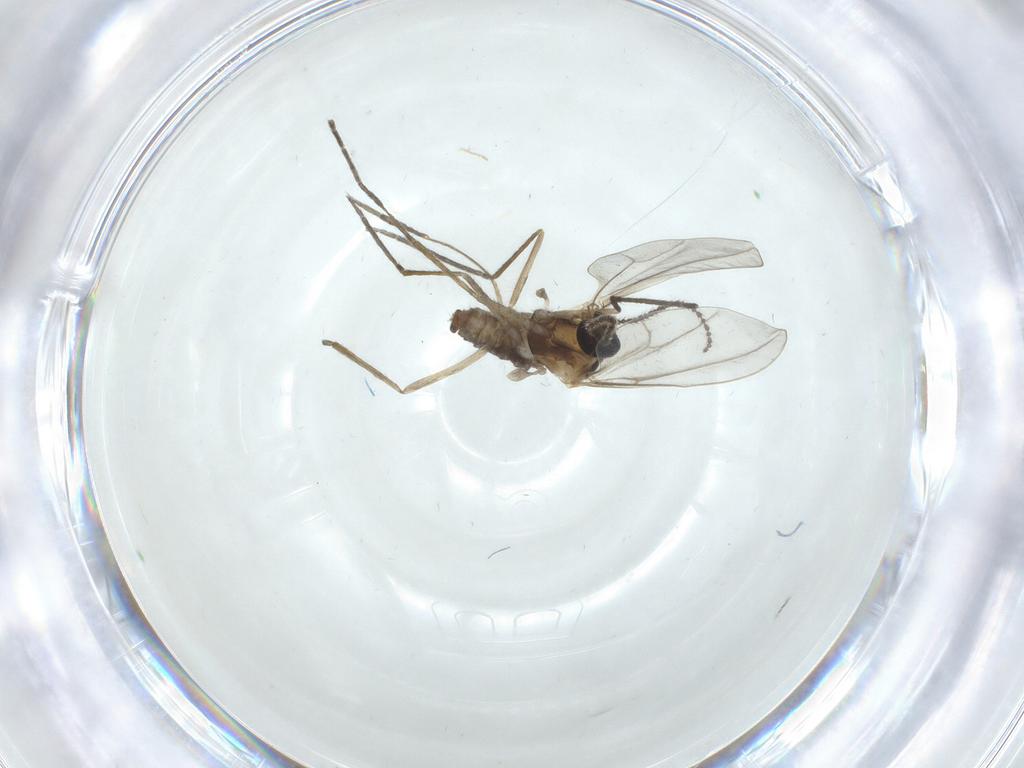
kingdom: Animalia
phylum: Arthropoda
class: Insecta
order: Diptera
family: Cecidomyiidae
